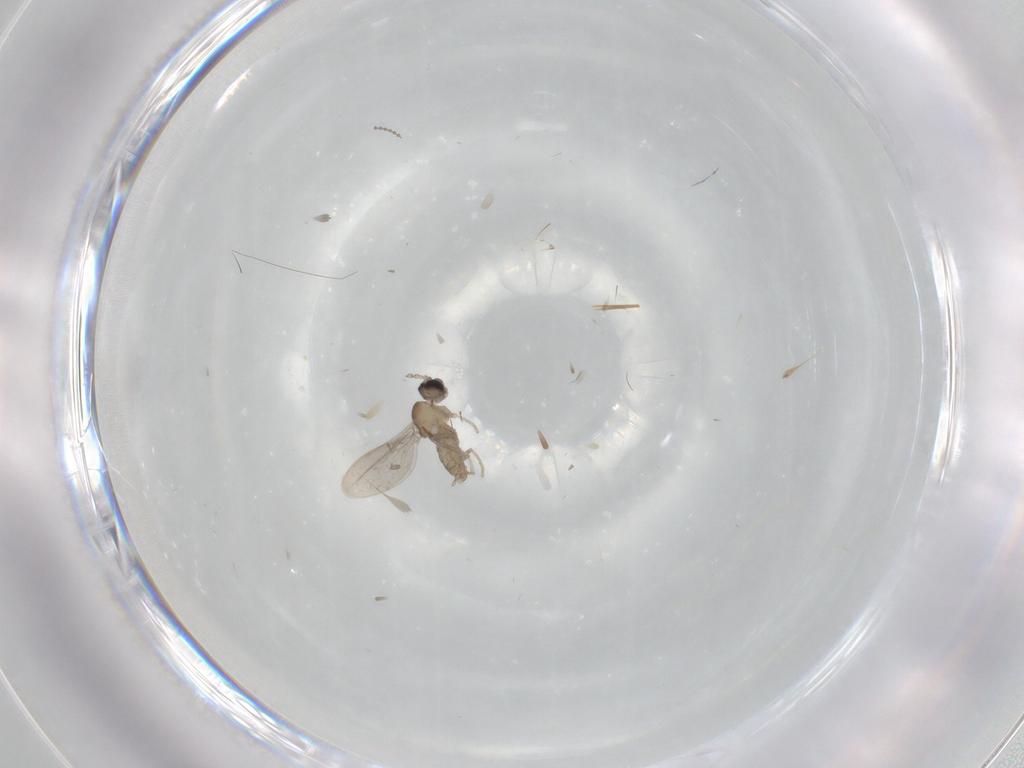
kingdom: Animalia
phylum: Arthropoda
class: Insecta
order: Diptera
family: Cecidomyiidae
